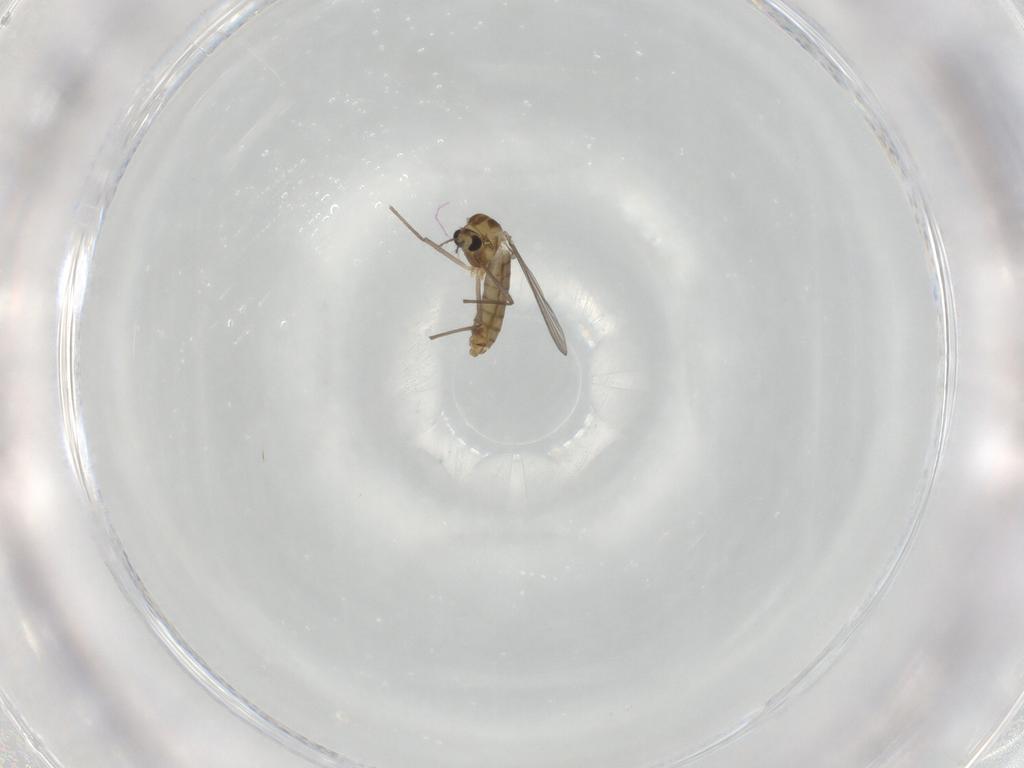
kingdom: Animalia
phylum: Arthropoda
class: Insecta
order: Diptera
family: Chironomidae
